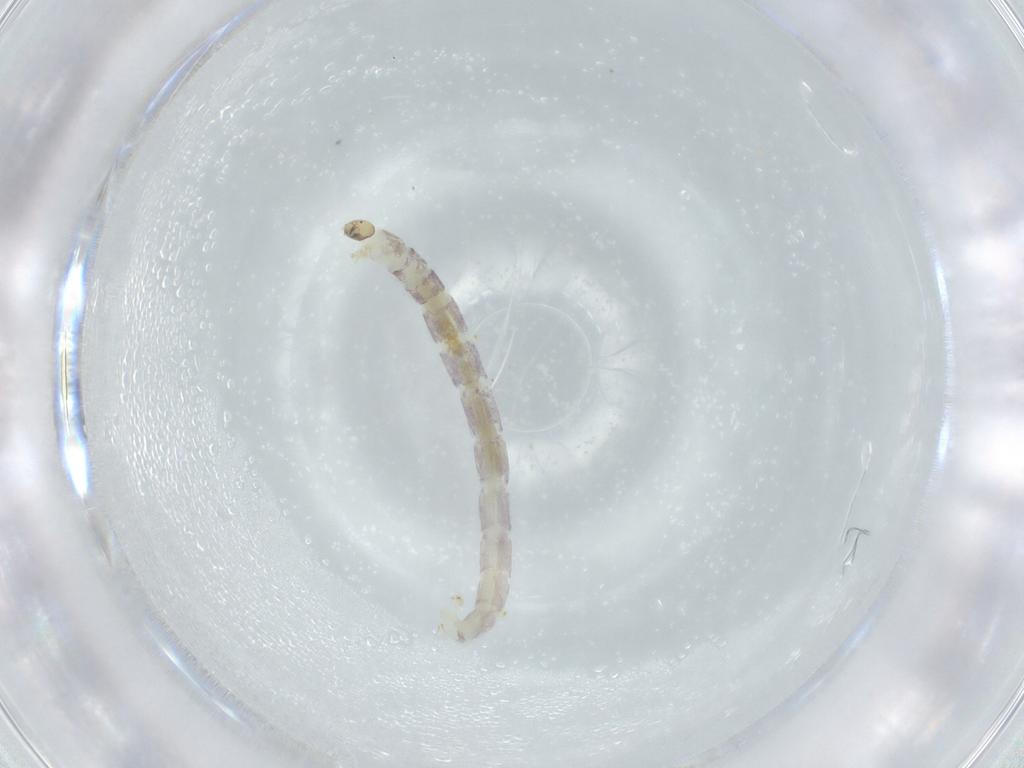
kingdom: Animalia
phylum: Arthropoda
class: Insecta
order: Diptera
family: Chironomidae
